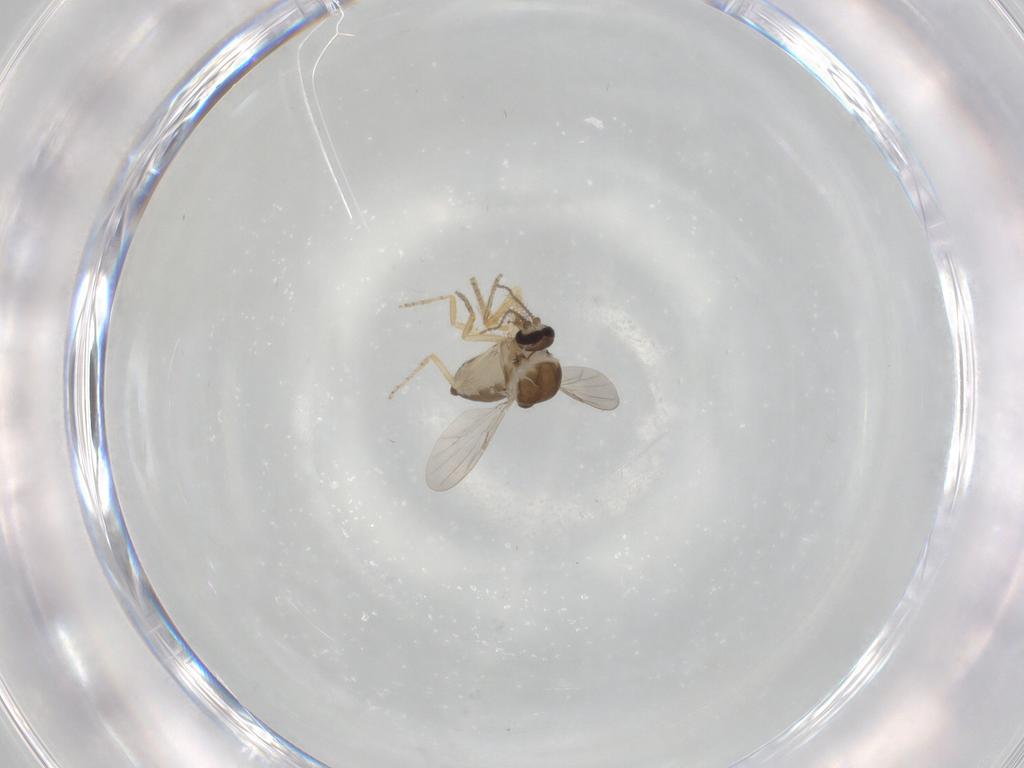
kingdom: Animalia
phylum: Arthropoda
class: Insecta
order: Diptera
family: Ceratopogonidae
